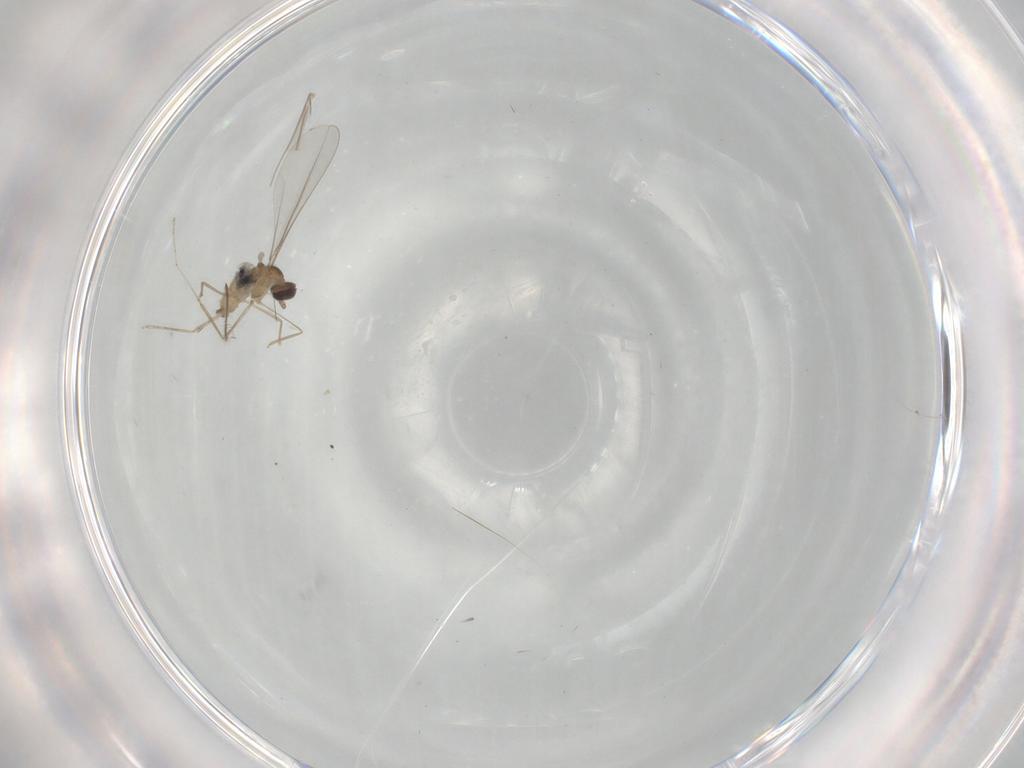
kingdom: Animalia
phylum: Arthropoda
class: Insecta
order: Diptera
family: Cecidomyiidae
